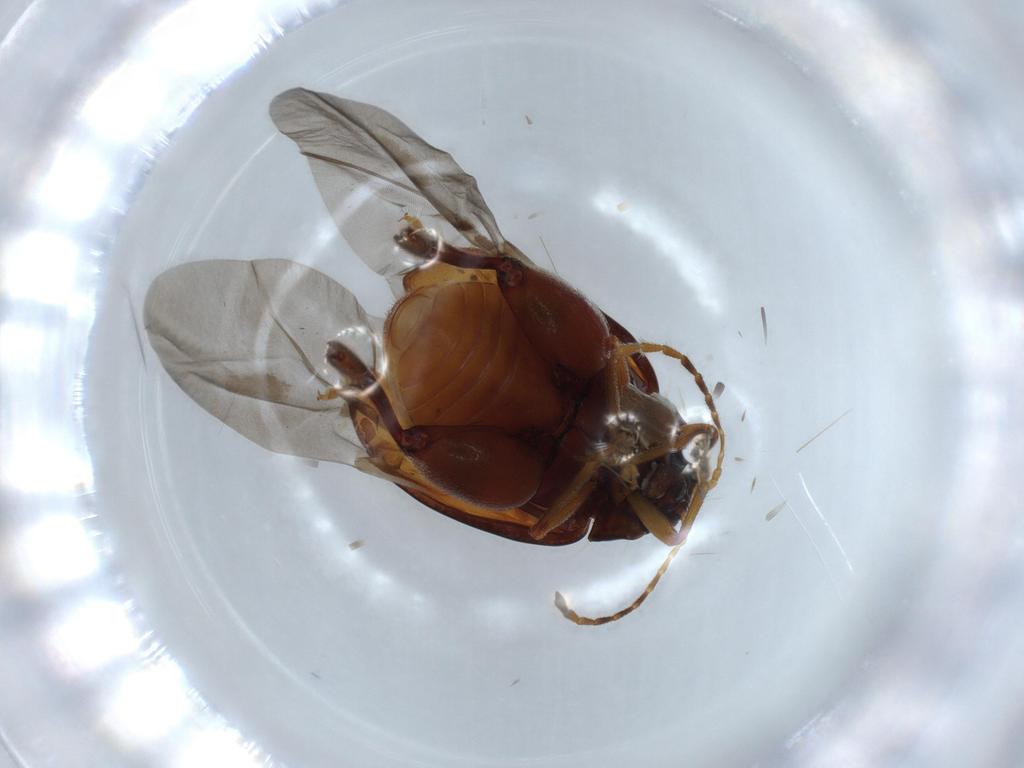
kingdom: Animalia
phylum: Arthropoda
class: Insecta
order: Coleoptera
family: Chrysomelidae
